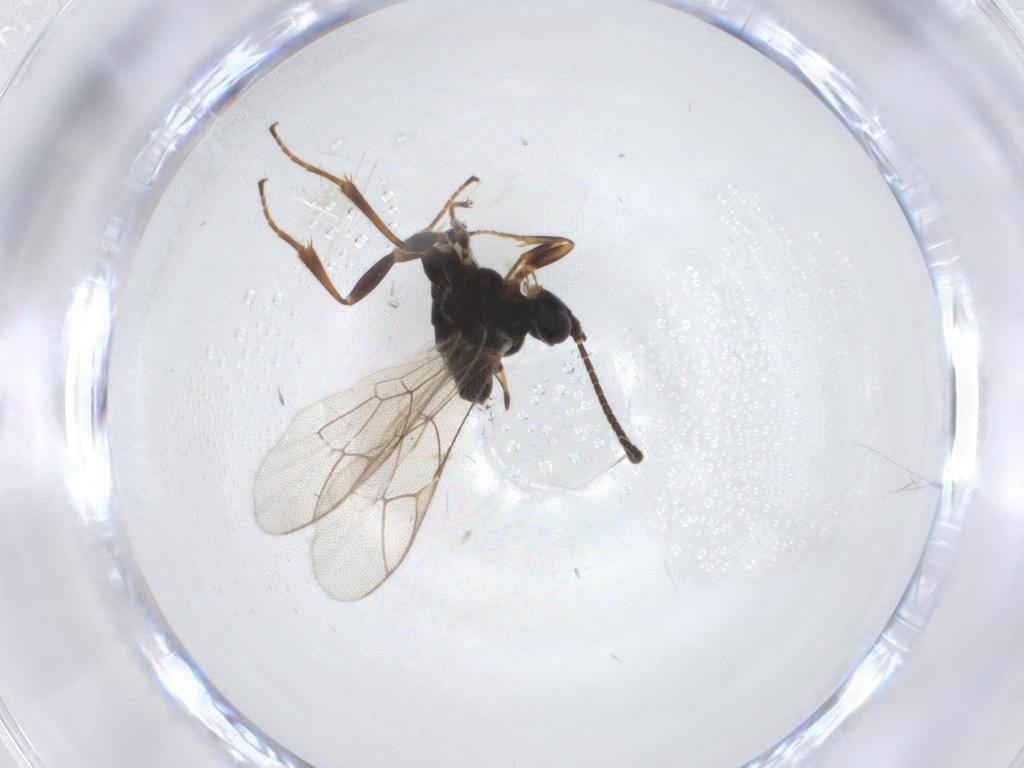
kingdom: Animalia
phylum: Arthropoda
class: Insecta
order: Hymenoptera
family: Ichneumonidae
